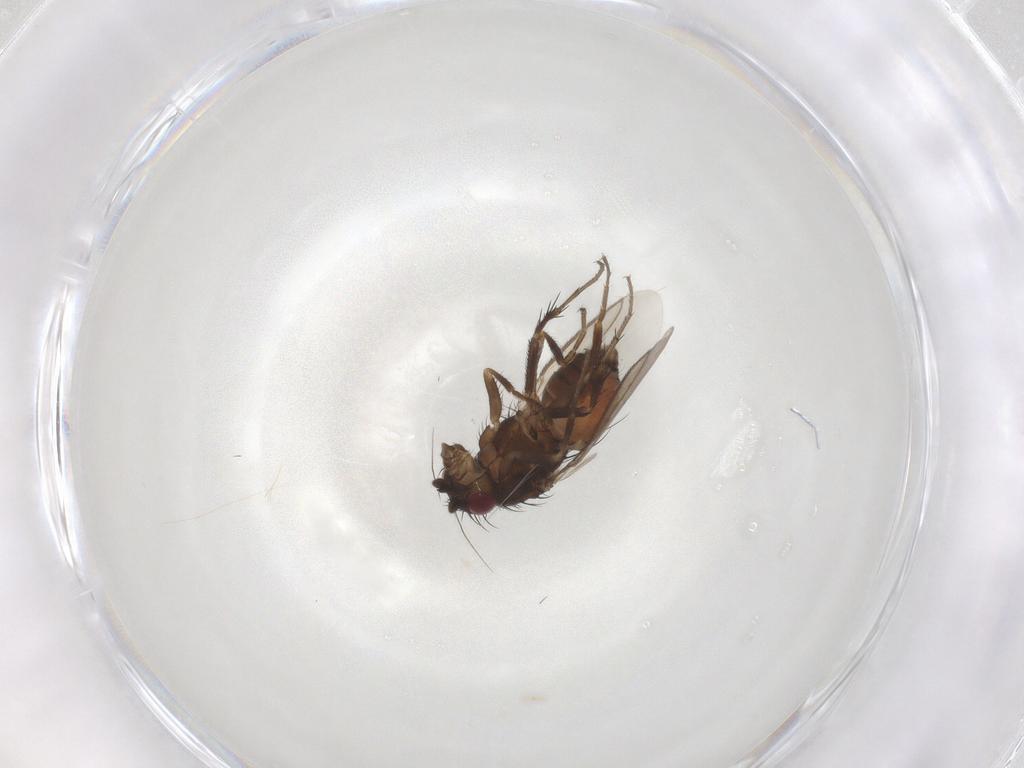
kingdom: Animalia
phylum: Arthropoda
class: Insecta
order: Diptera
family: Sphaeroceridae
